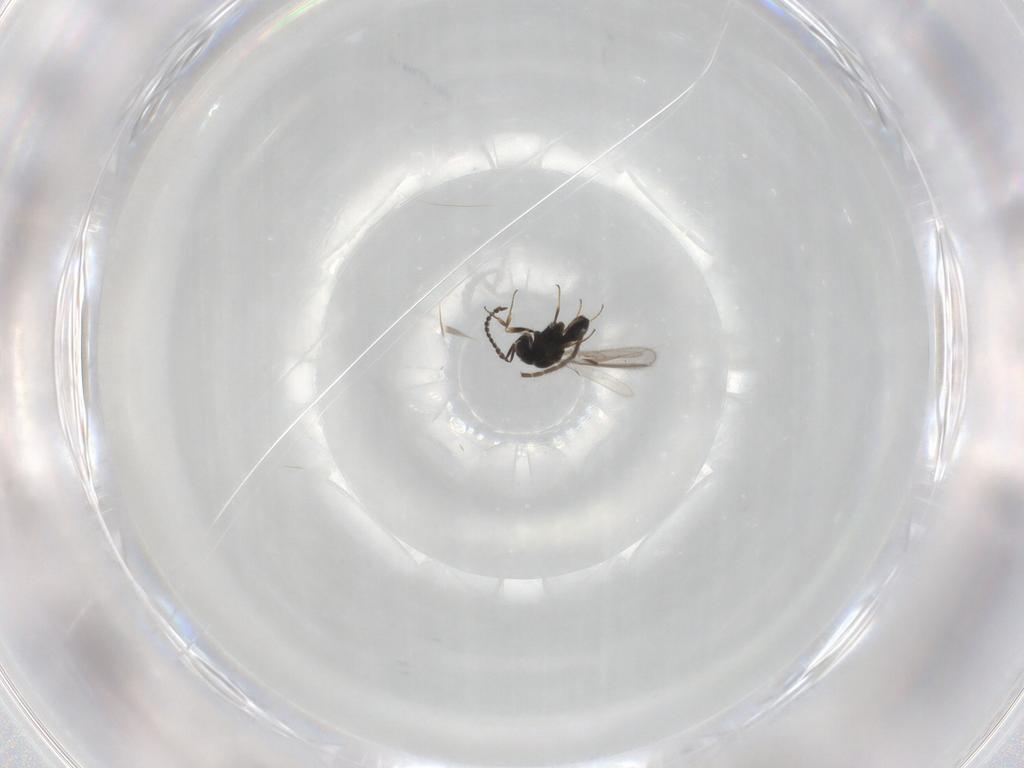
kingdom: Animalia
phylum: Arthropoda
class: Insecta
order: Hymenoptera
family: Scelionidae
